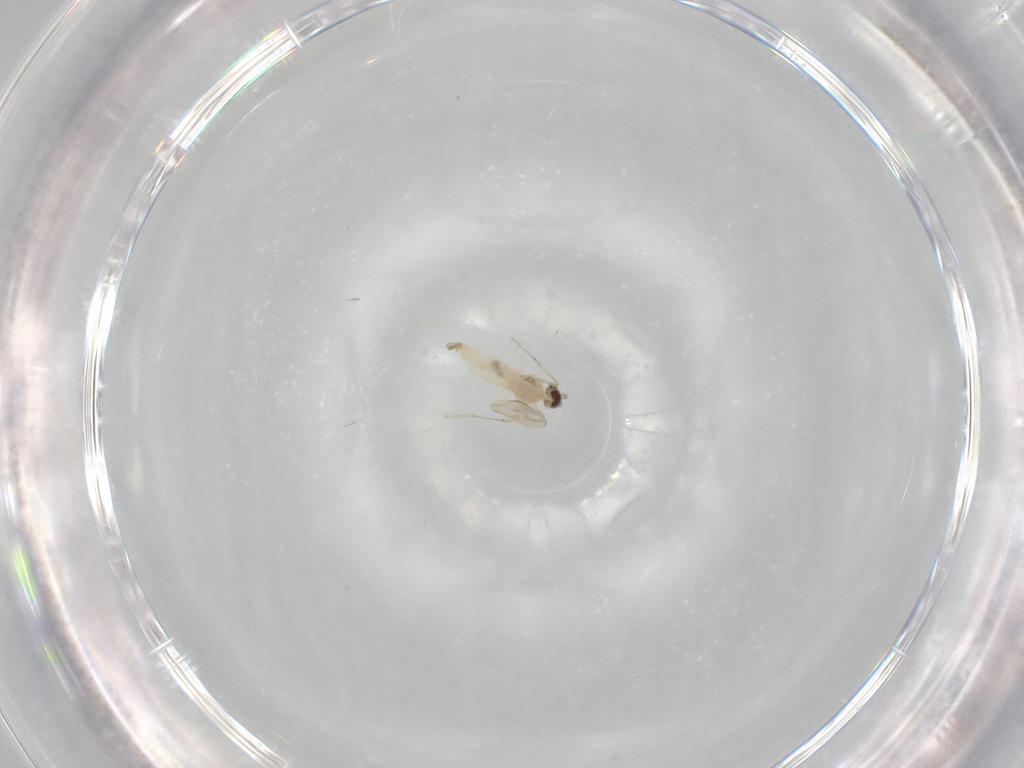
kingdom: Animalia
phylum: Arthropoda
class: Insecta
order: Diptera
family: Cecidomyiidae
